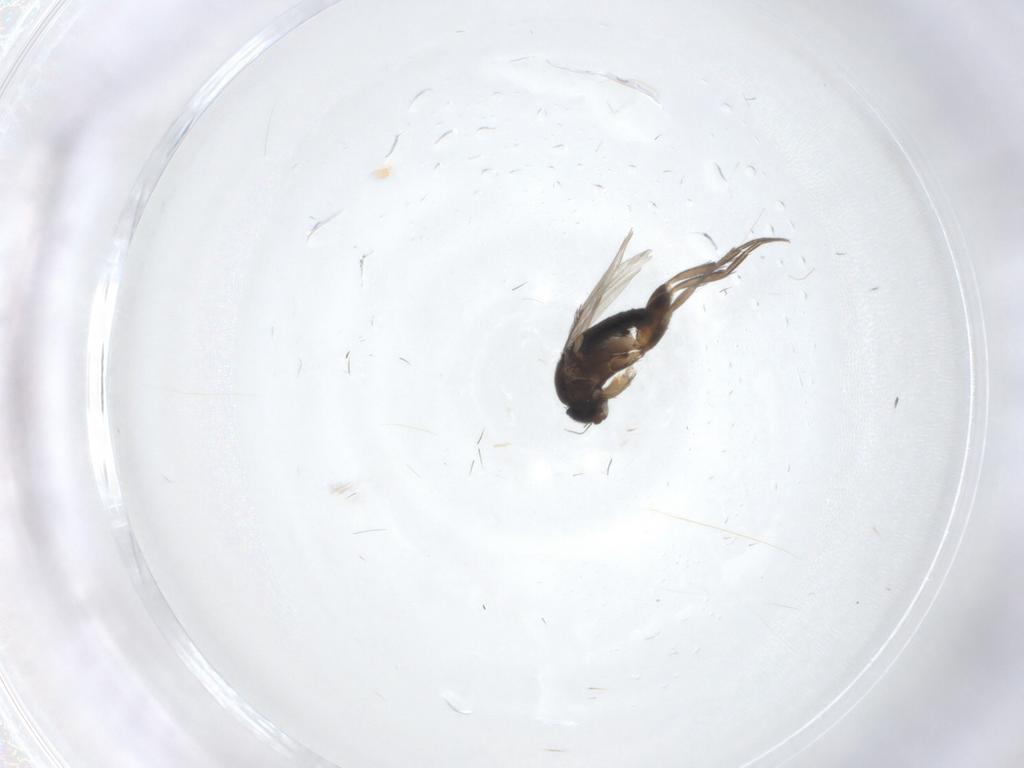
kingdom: Animalia
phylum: Arthropoda
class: Insecta
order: Diptera
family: Phoridae
